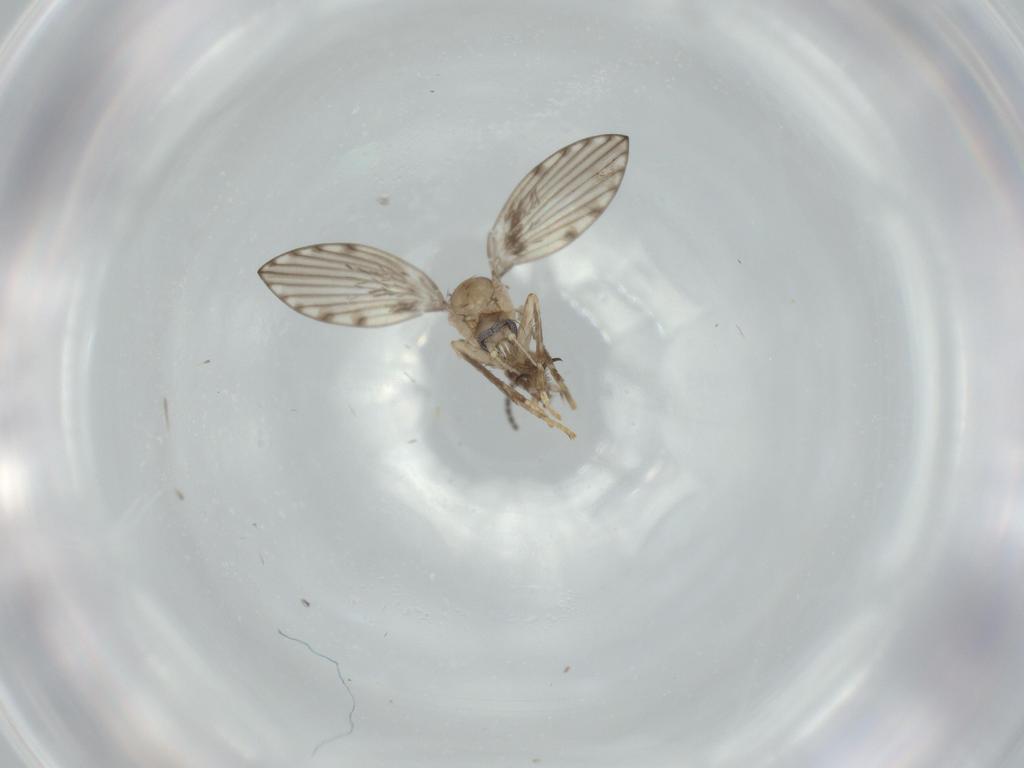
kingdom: Animalia
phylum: Arthropoda
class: Insecta
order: Diptera
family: Psychodidae
